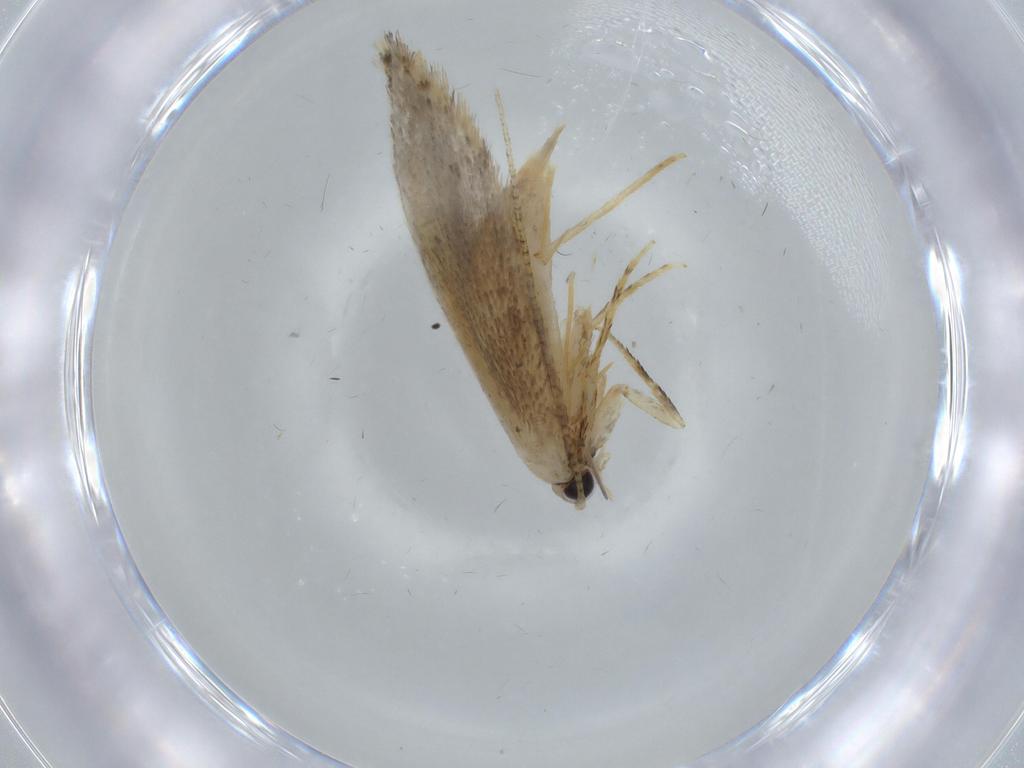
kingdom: Animalia
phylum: Arthropoda
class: Insecta
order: Lepidoptera
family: Tineidae
